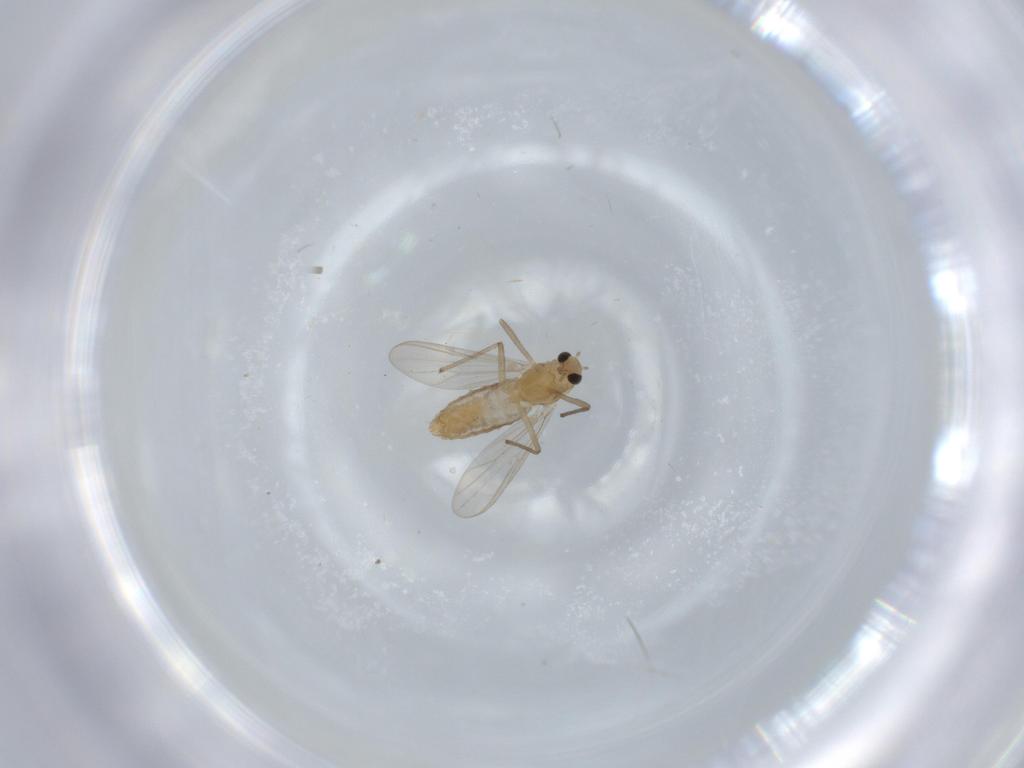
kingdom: Animalia
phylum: Arthropoda
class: Insecta
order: Diptera
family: Chironomidae
